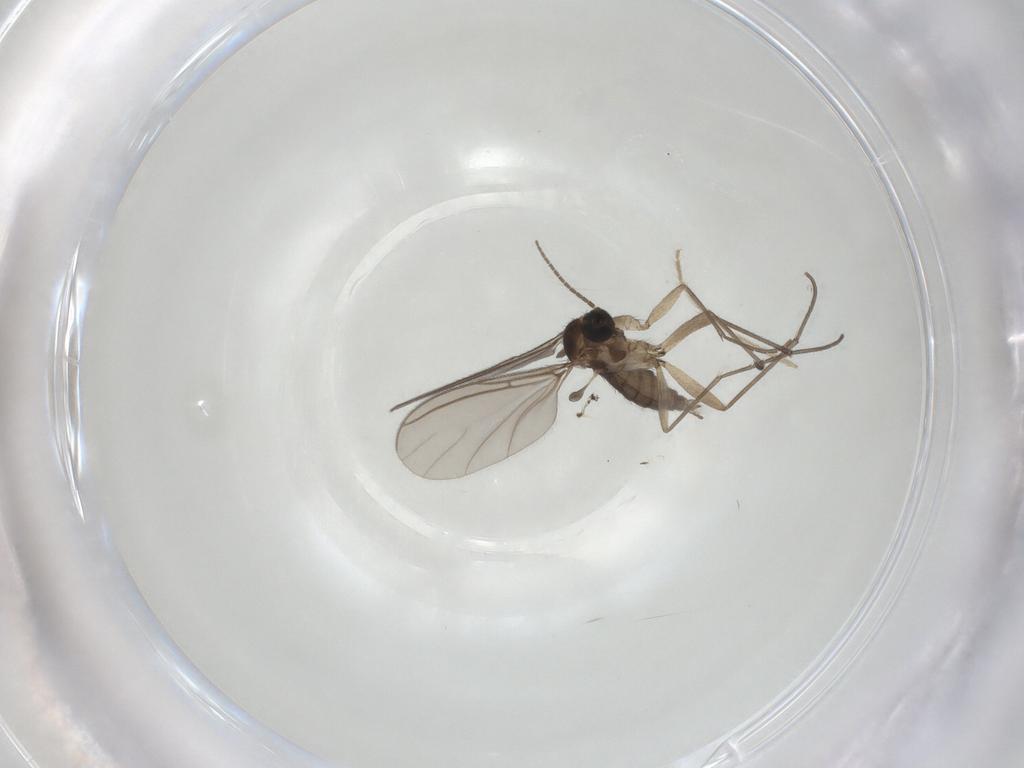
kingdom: Animalia
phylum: Arthropoda
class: Insecta
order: Diptera
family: Sciaridae
